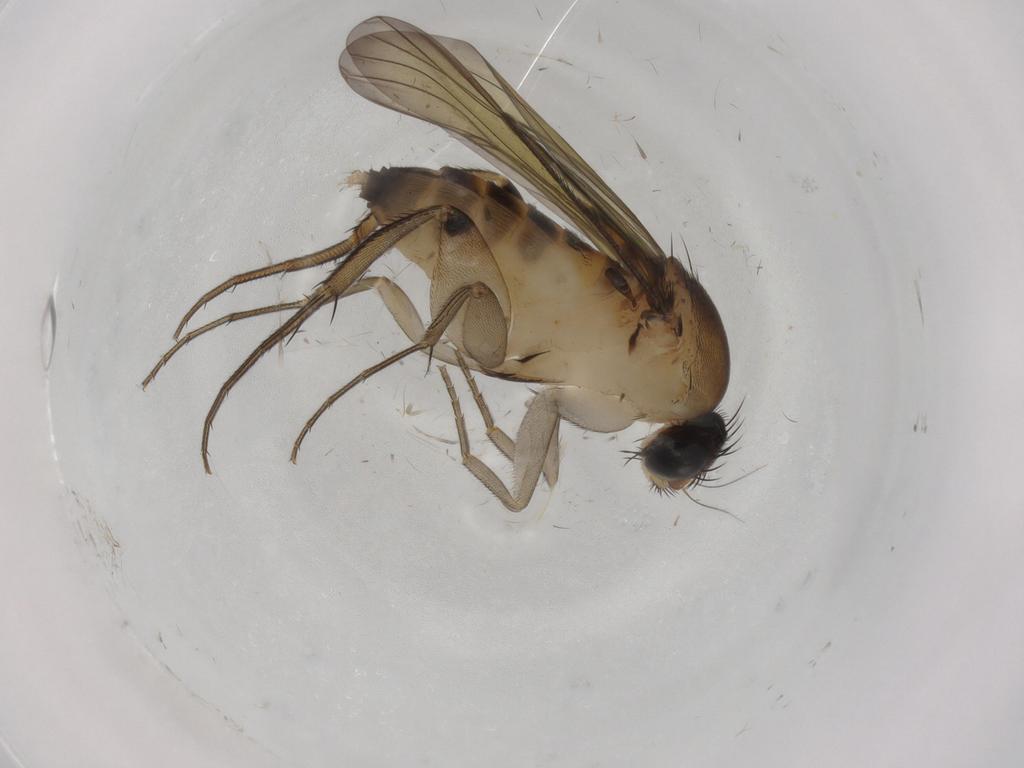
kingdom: Animalia
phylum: Arthropoda
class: Insecta
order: Diptera
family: Phoridae
